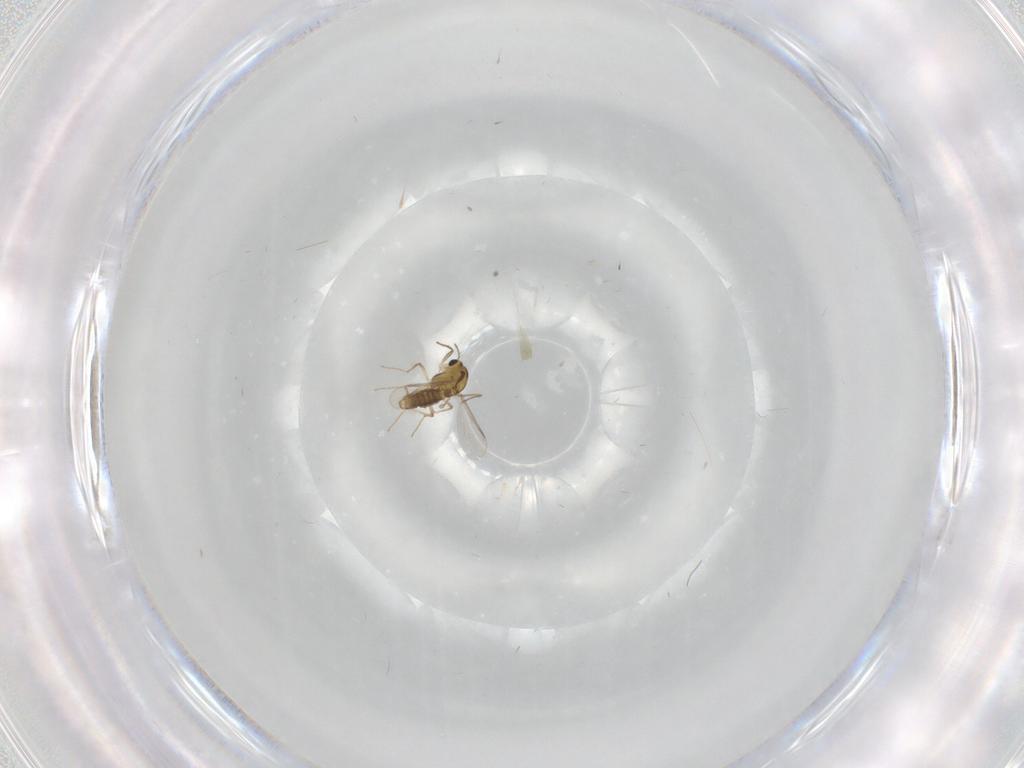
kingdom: Animalia
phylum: Arthropoda
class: Insecta
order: Diptera
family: Chironomidae
